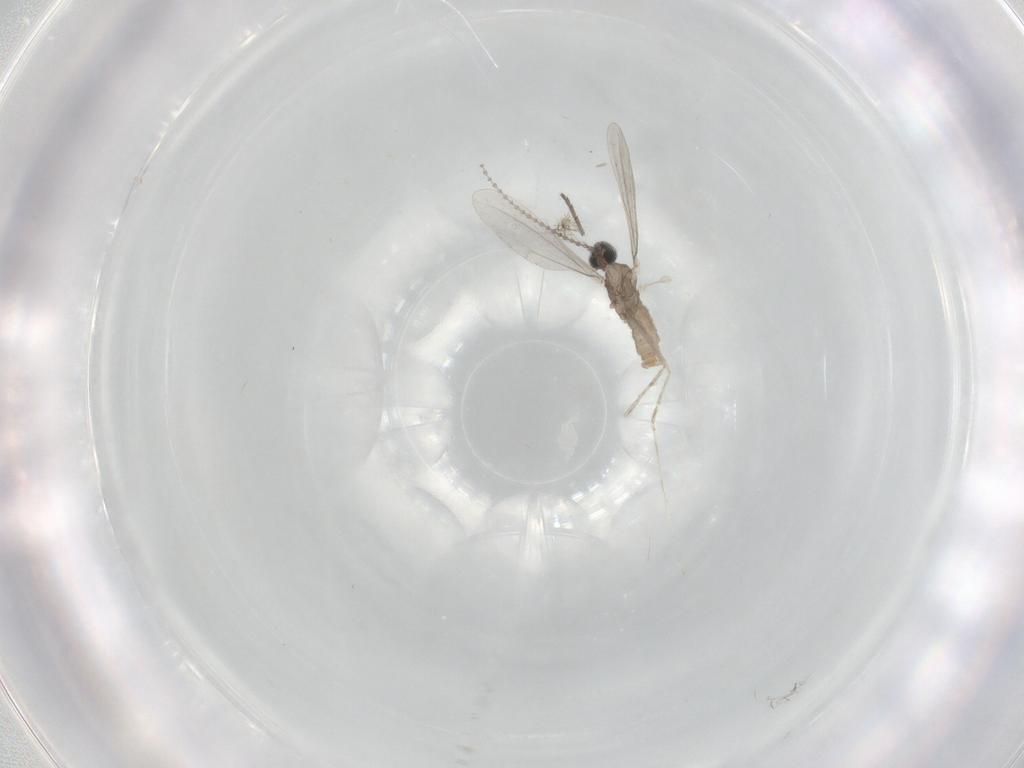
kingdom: Animalia
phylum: Arthropoda
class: Insecta
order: Diptera
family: Cecidomyiidae
